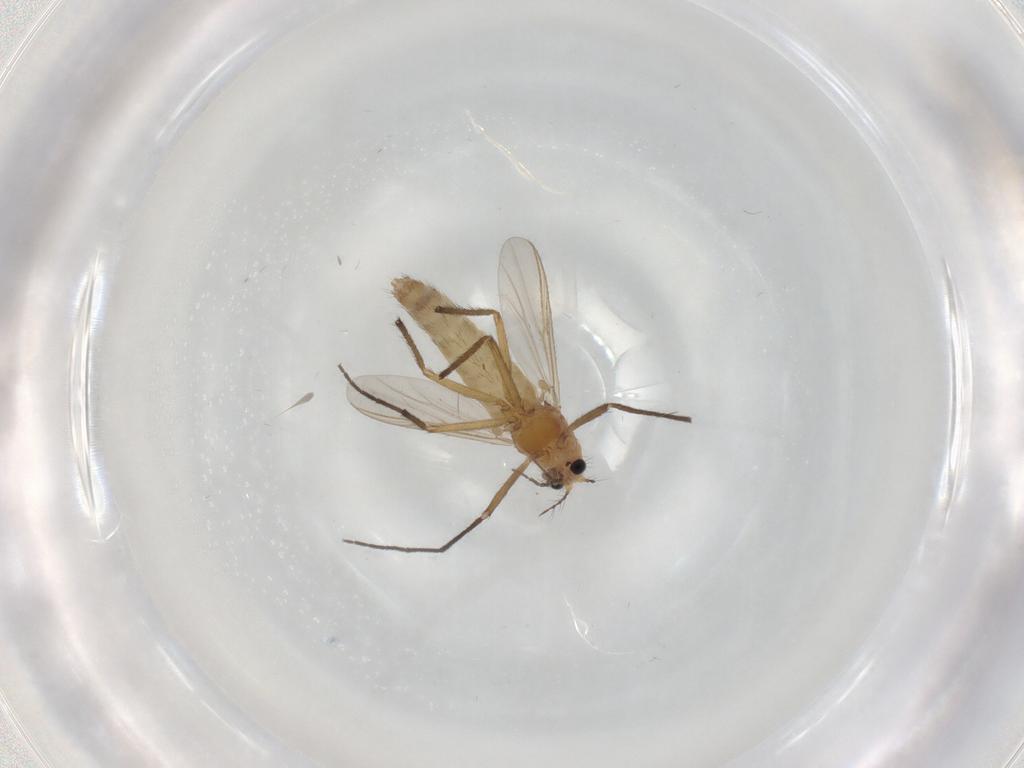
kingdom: Animalia
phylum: Arthropoda
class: Insecta
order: Diptera
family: Chironomidae
